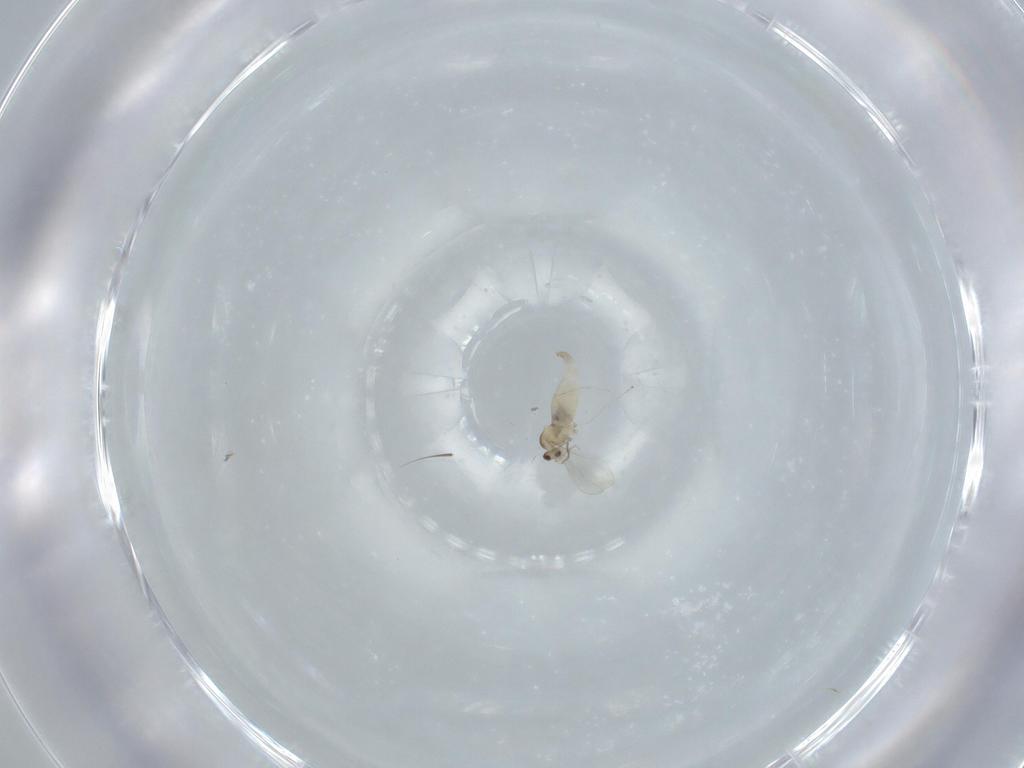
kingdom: Animalia
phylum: Arthropoda
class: Insecta
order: Diptera
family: Cecidomyiidae
